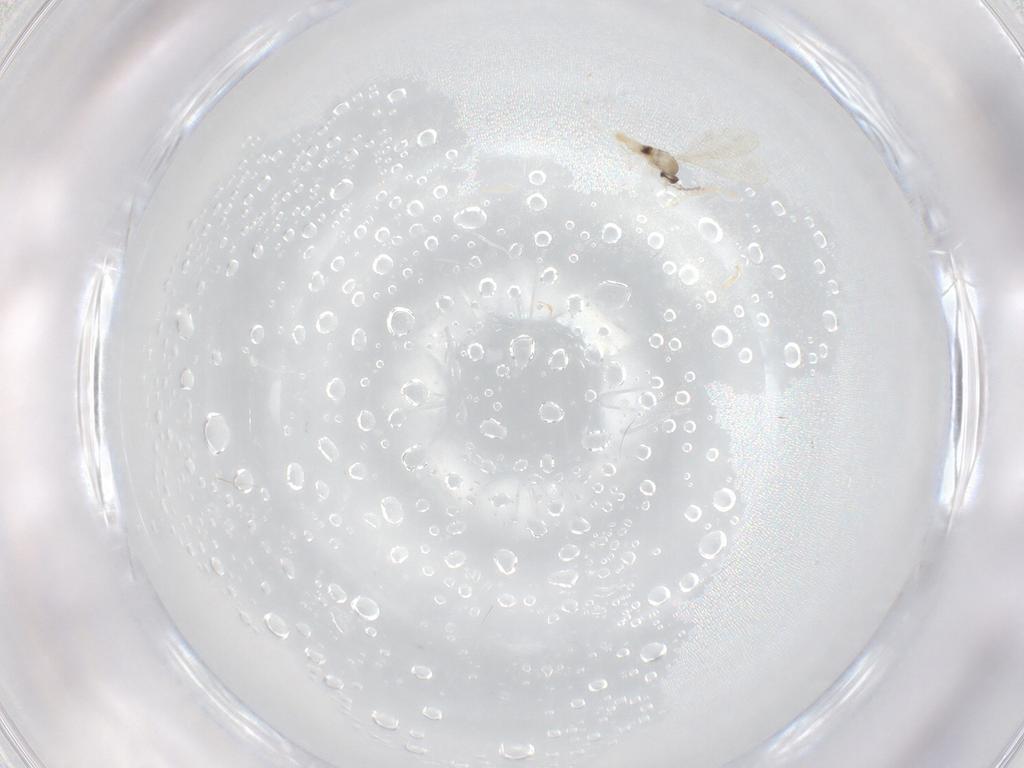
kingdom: Animalia
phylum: Arthropoda
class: Insecta
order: Diptera
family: Cecidomyiidae
